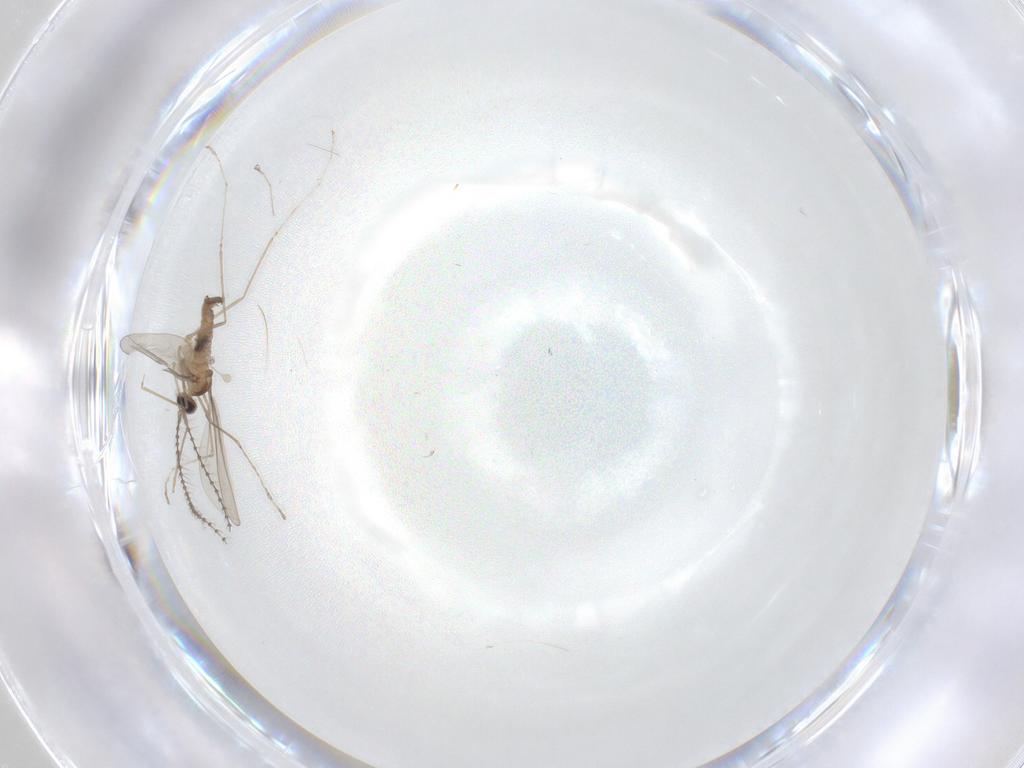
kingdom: Animalia
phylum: Arthropoda
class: Insecta
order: Diptera
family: Cecidomyiidae
